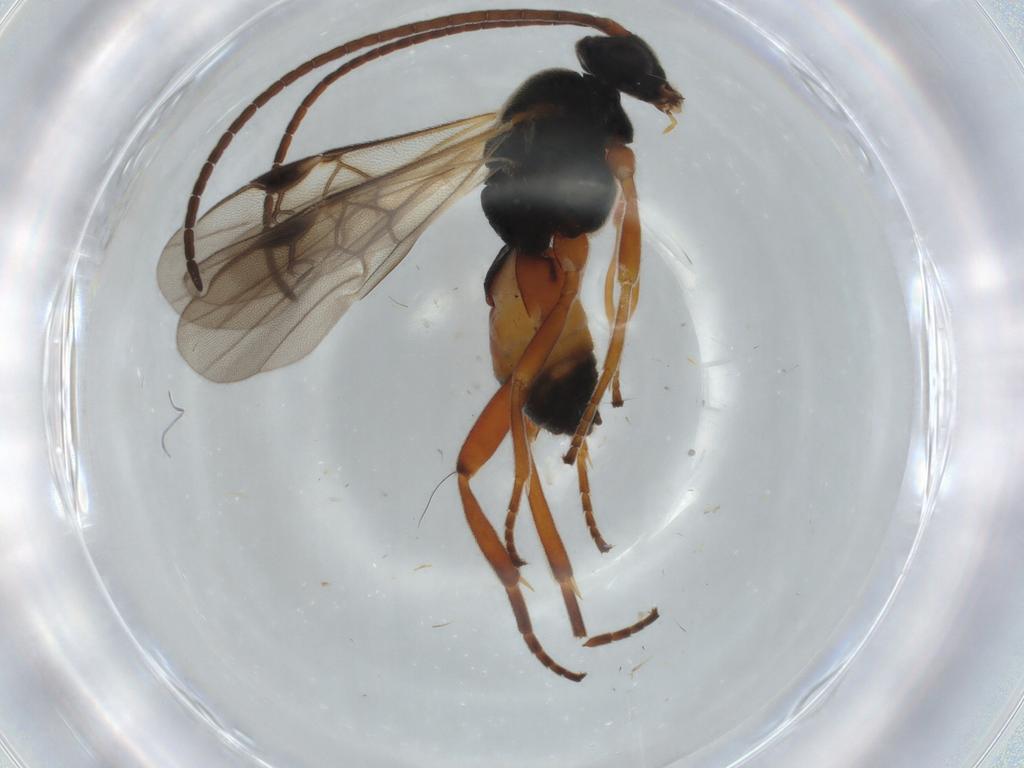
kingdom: Animalia
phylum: Arthropoda
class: Insecta
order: Hymenoptera
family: Braconidae
